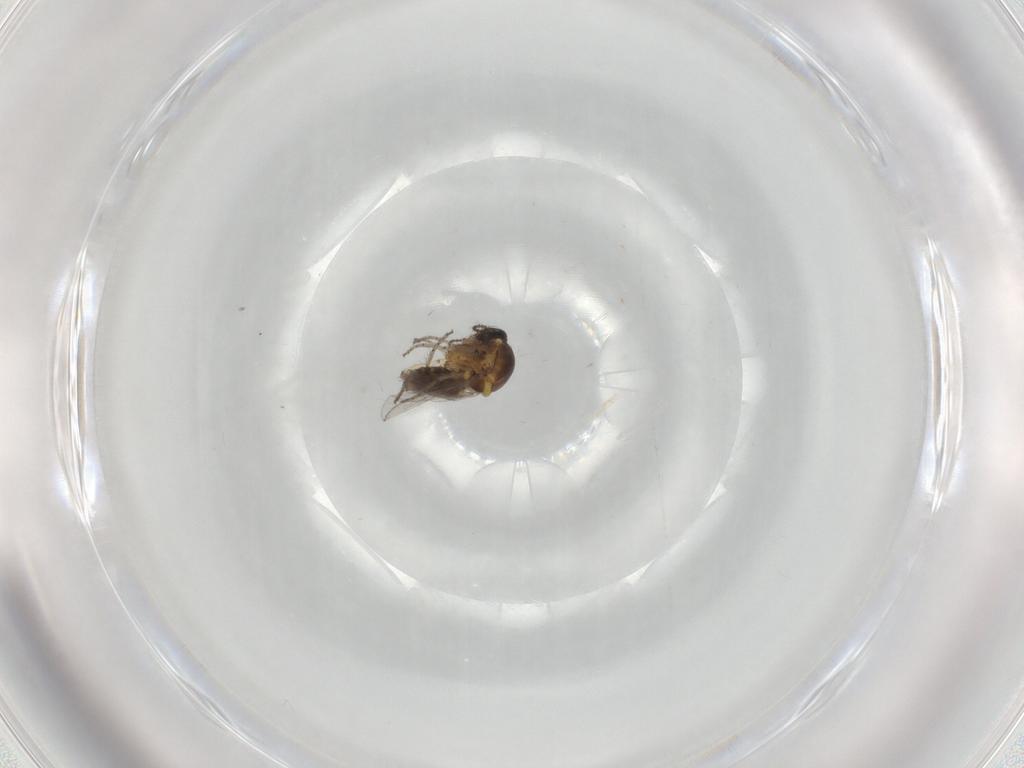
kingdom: Animalia
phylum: Arthropoda
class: Insecta
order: Diptera
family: Ceratopogonidae
